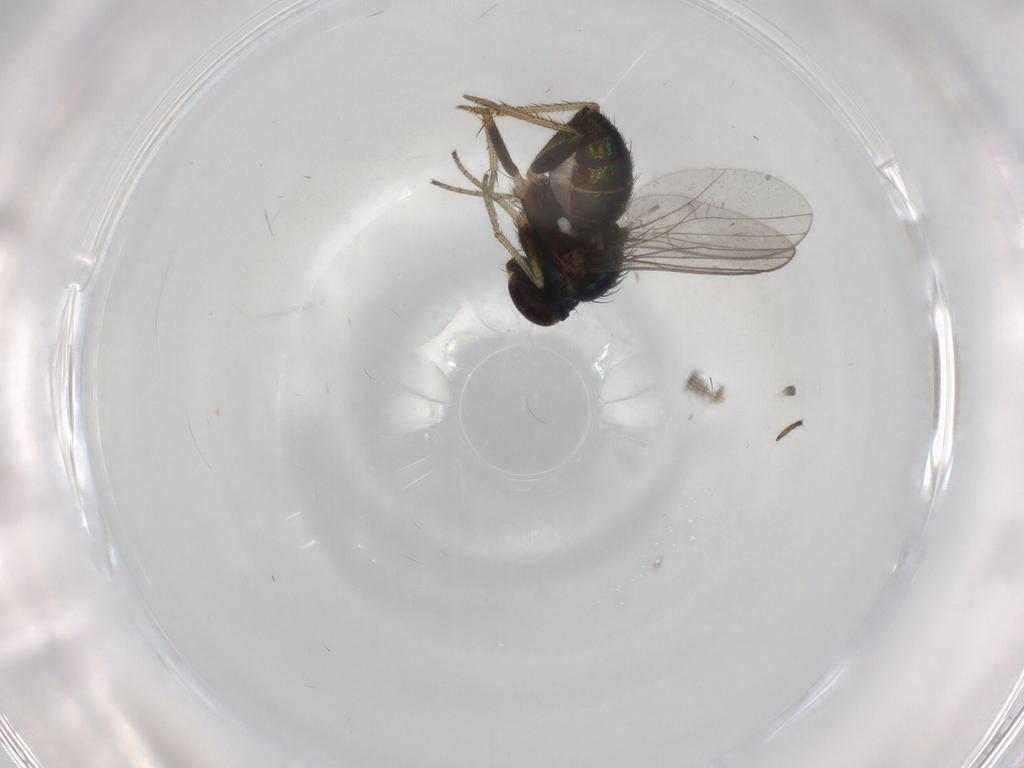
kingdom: Animalia
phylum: Arthropoda
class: Insecta
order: Diptera
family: Dolichopodidae
